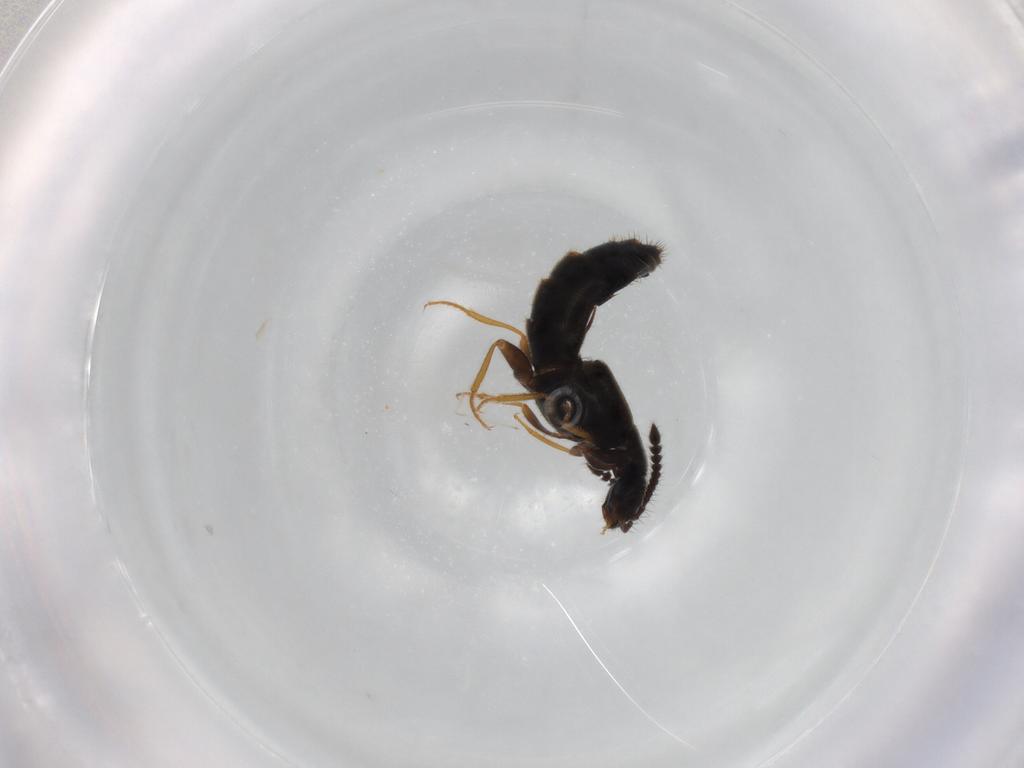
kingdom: Animalia
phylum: Arthropoda
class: Insecta
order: Coleoptera
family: Staphylinidae
